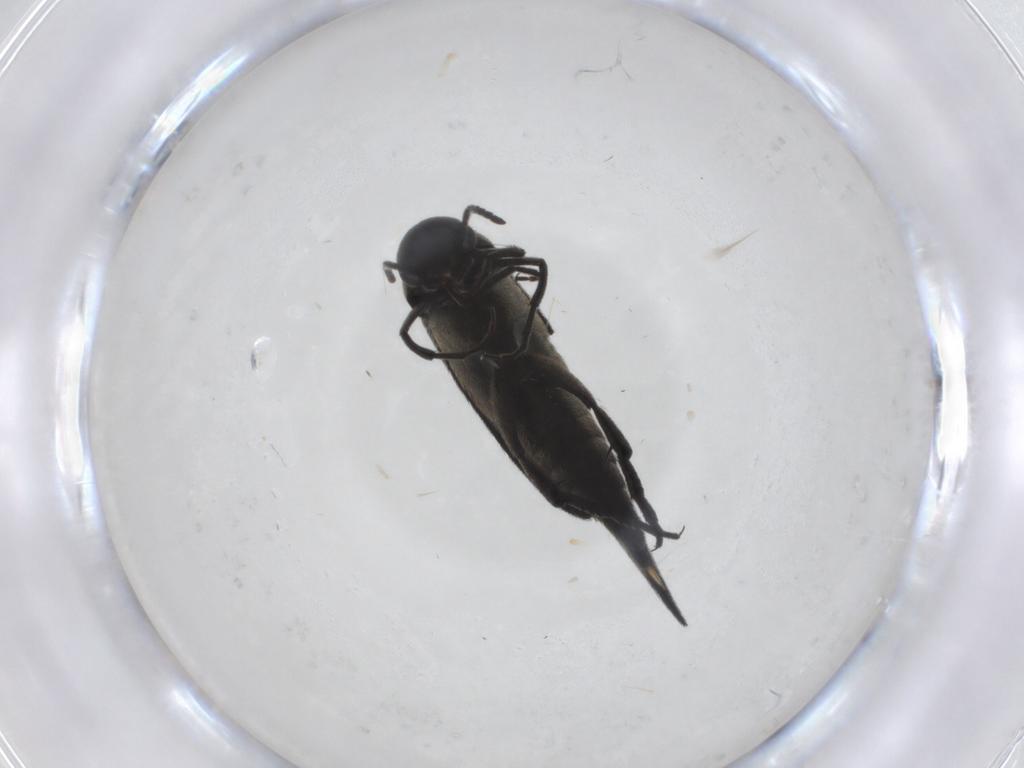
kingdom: Animalia
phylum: Arthropoda
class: Insecta
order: Coleoptera
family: Mordellidae
